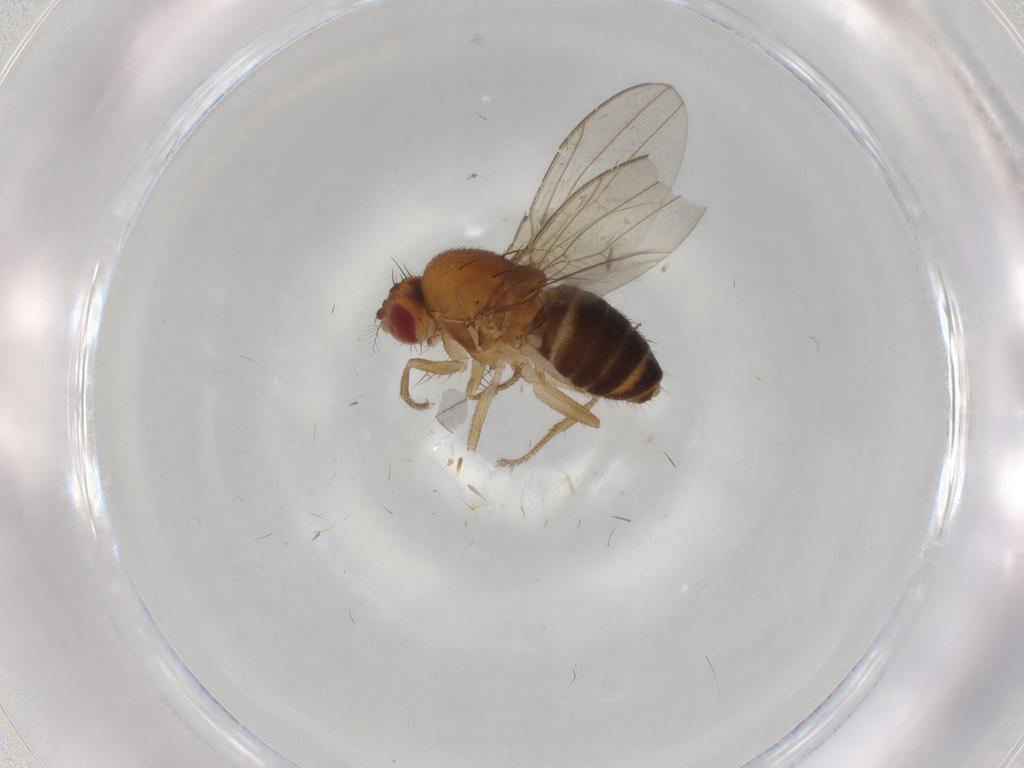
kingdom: Animalia
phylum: Arthropoda
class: Insecta
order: Diptera
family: Drosophilidae
